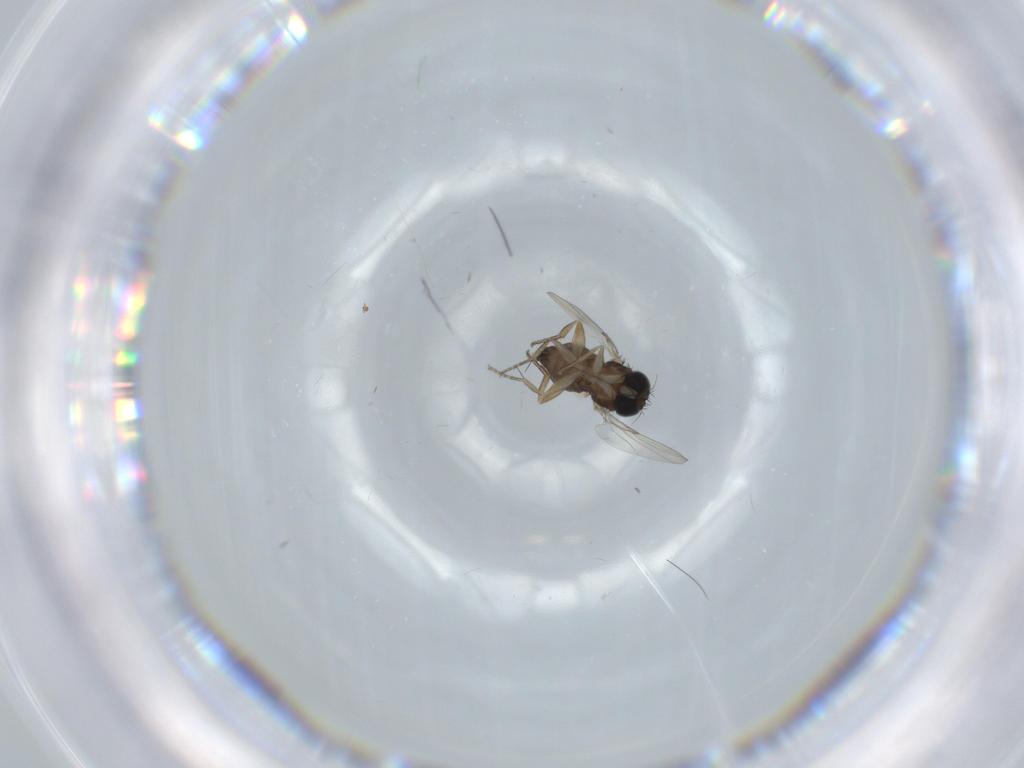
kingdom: Animalia
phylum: Arthropoda
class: Insecta
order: Diptera
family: Phoridae
